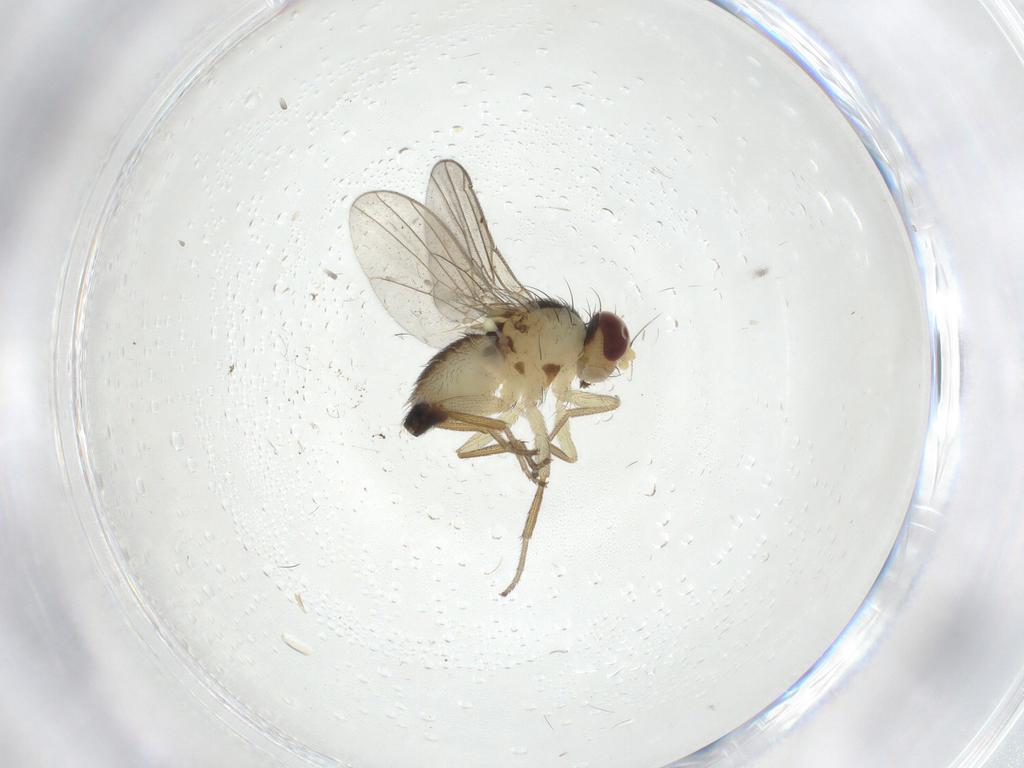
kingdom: Animalia
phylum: Arthropoda
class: Insecta
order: Diptera
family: Agromyzidae
